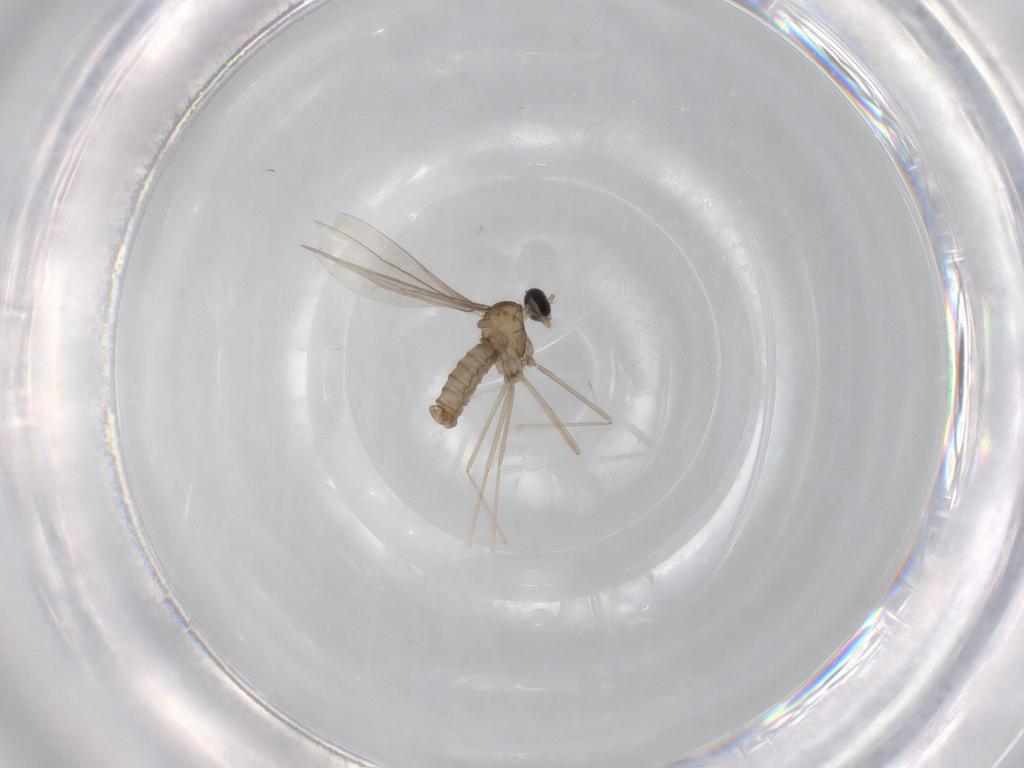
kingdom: Animalia
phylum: Arthropoda
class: Insecta
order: Diptera
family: Cecidomyiidae
